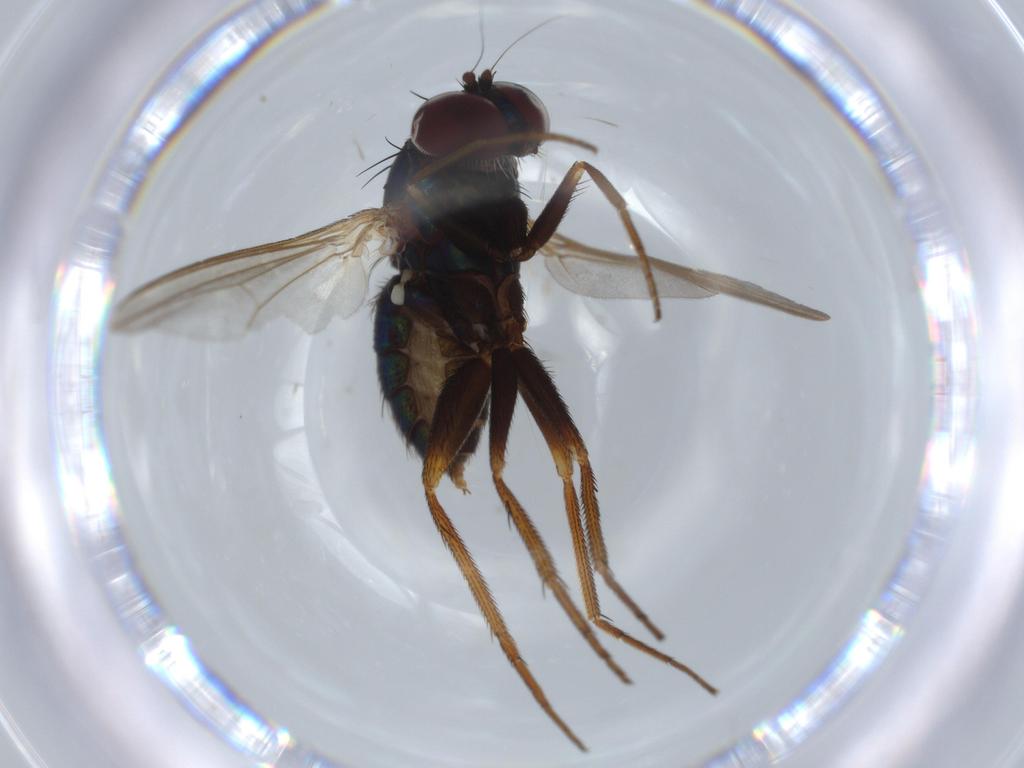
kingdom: Animalia
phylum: Arthropoda
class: Insecta
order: Diptera
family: Dolichopodidae
